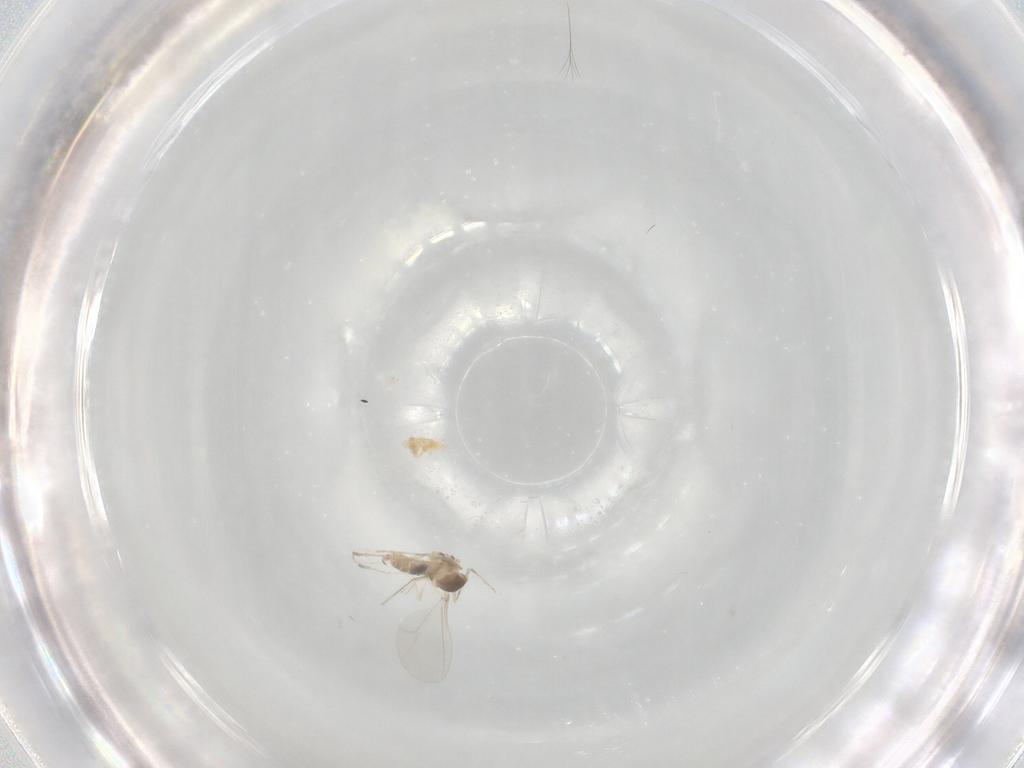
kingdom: Animalia
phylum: Arthropoda
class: Insecta
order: Diptera
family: Cecidomyiidae
